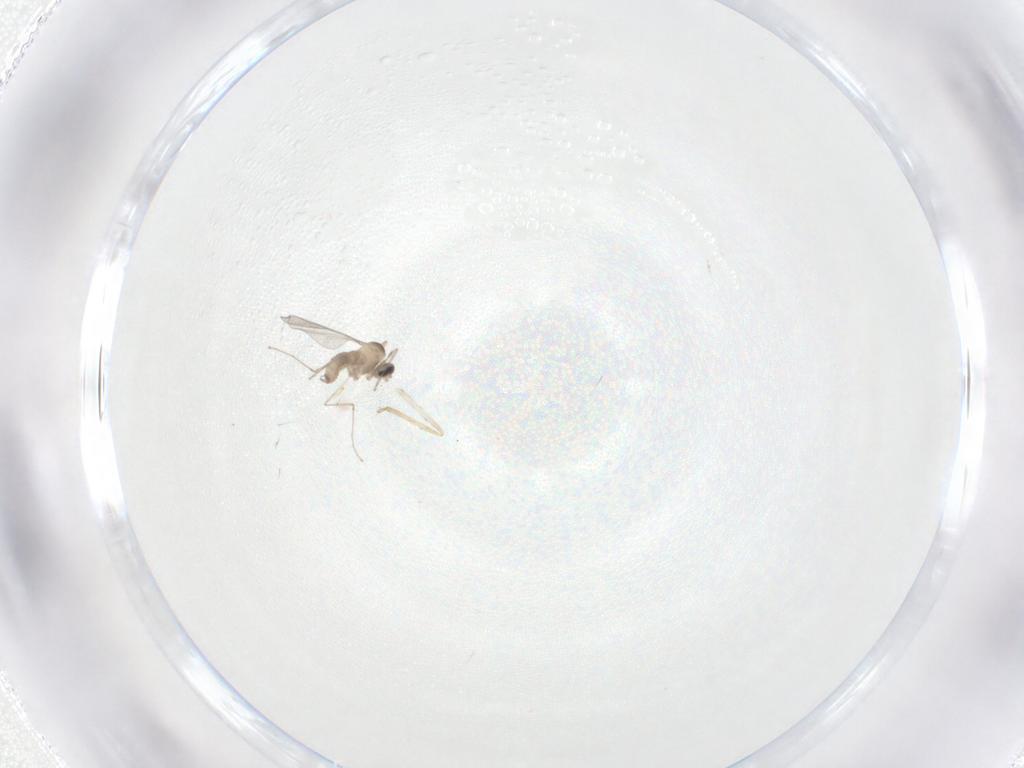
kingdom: Animalia
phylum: Arthropoda
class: Insecta
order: Diptera
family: Cecidomyiidae
